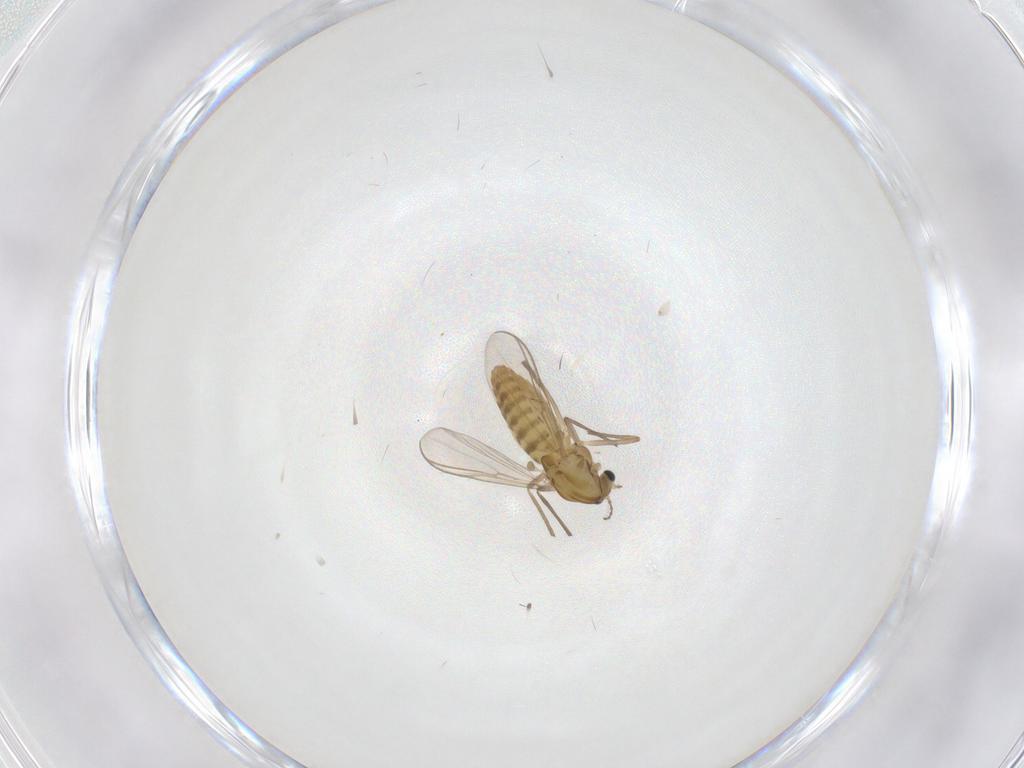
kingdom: Animalia
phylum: Arthropoda
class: Insecta
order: Diptera
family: Chironomidae
